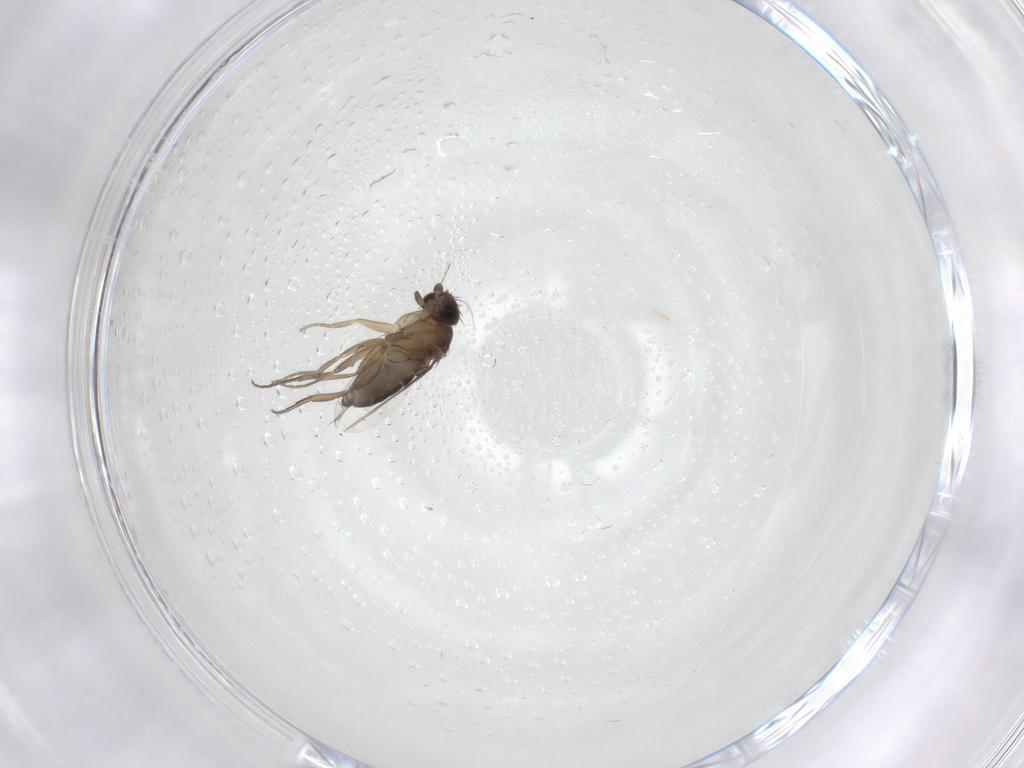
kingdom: Animalia
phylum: Arthropoda
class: Insecta
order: Diptera
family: Phoridae
